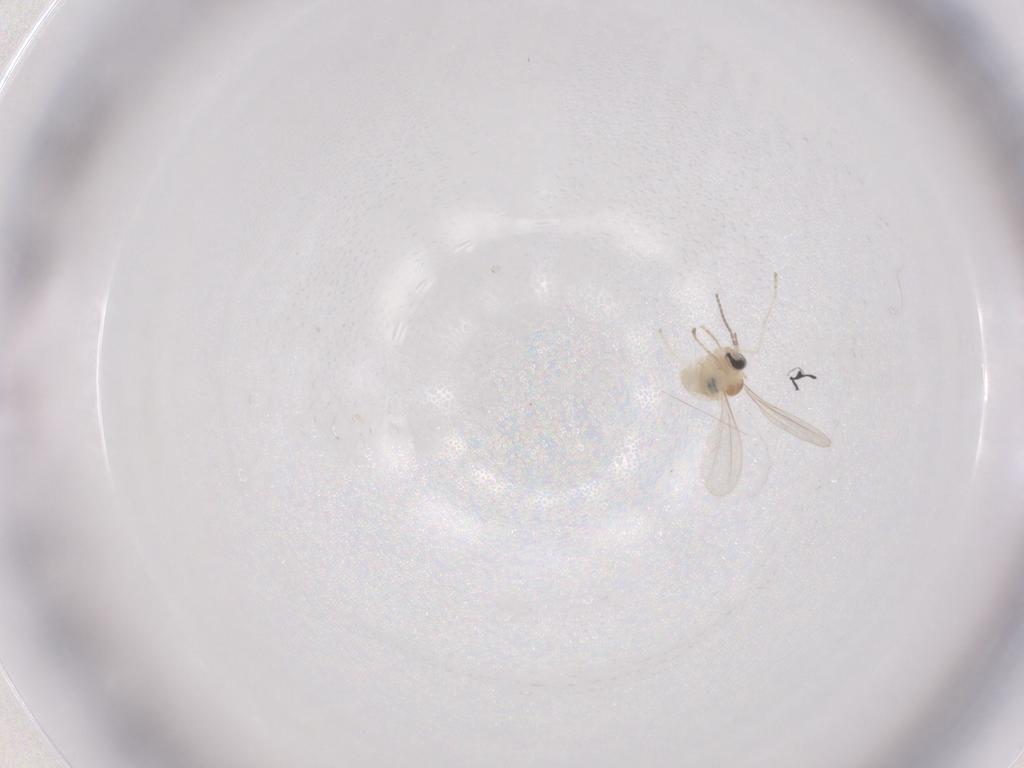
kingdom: Animalia
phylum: Arthropoda
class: Insecta
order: Diptera
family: Cecidomyiidae
